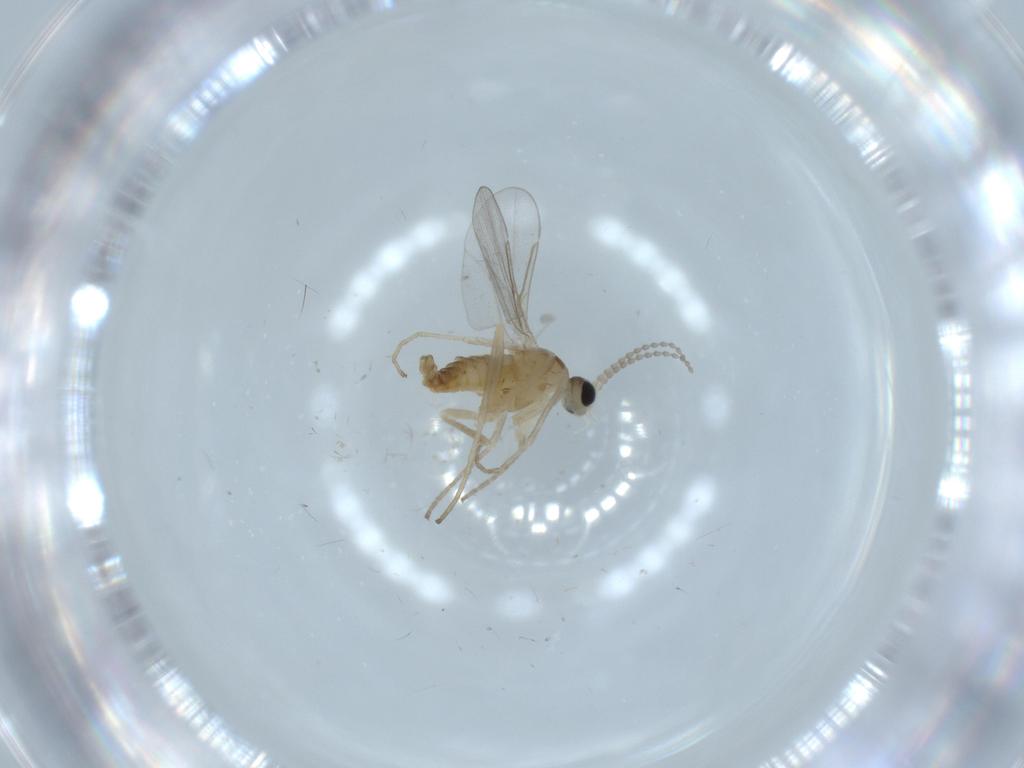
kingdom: Animalia
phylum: Arthropoda
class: Insecta
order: Diptera
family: Cecidomyiidae
